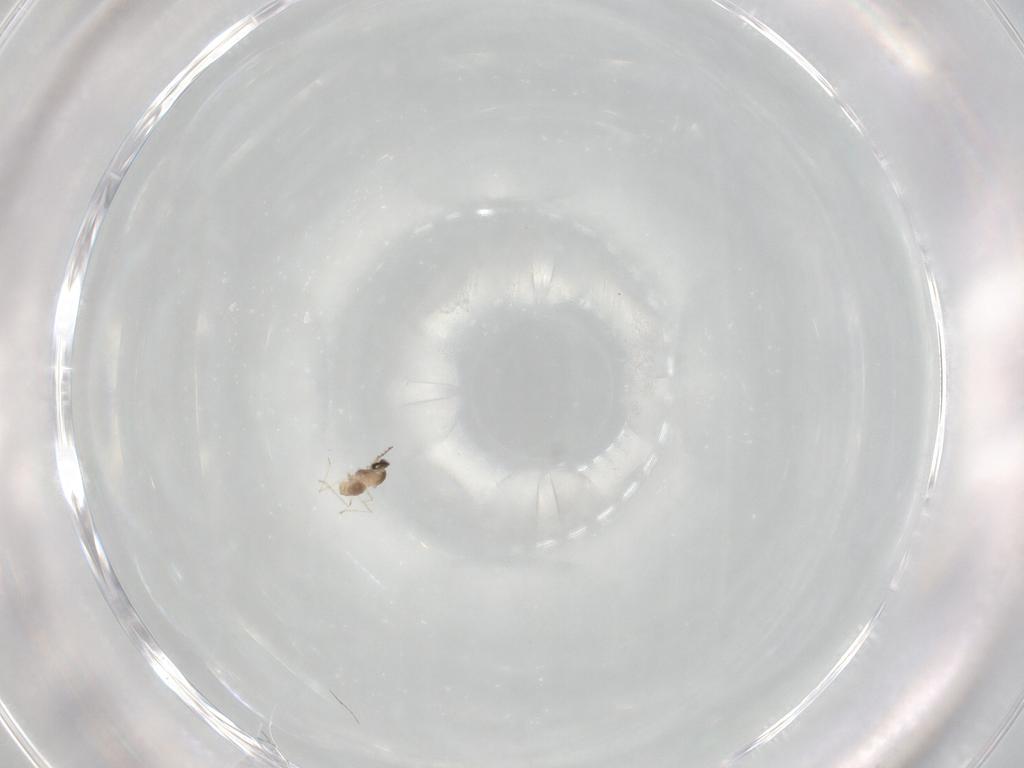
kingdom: Animalia
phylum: Arthropoda
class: Insecta
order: Diptera
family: Cecidomyiidae
